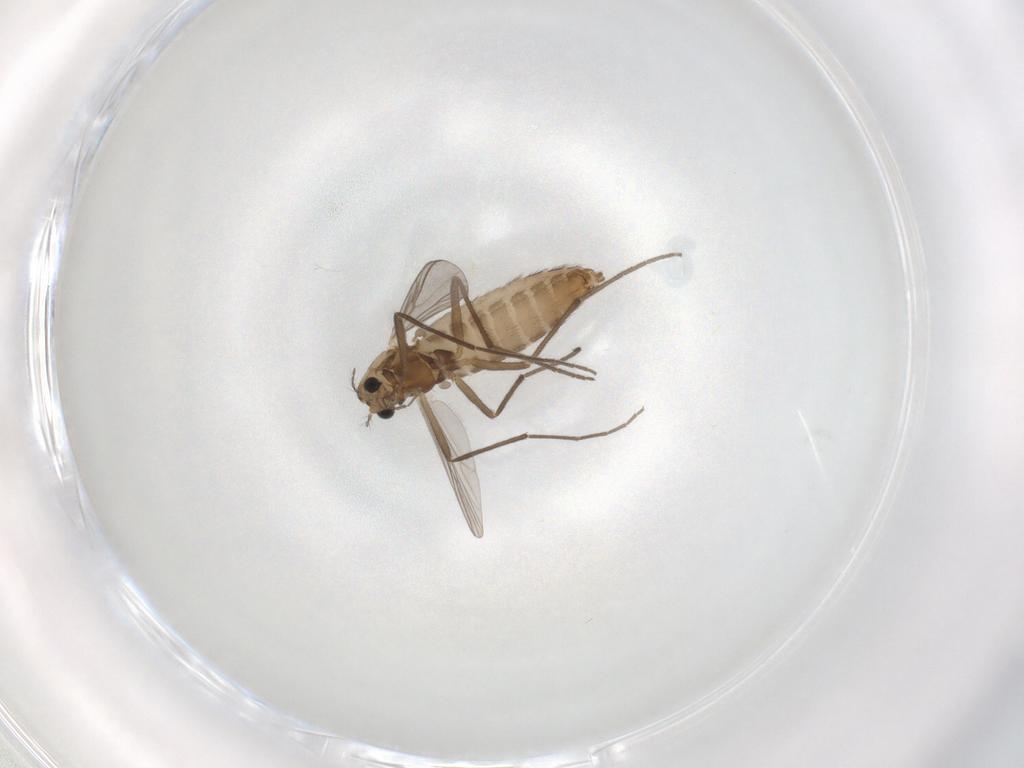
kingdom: Animalia
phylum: Arthropoda
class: Insecta
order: Diptera
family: Chironomidae
